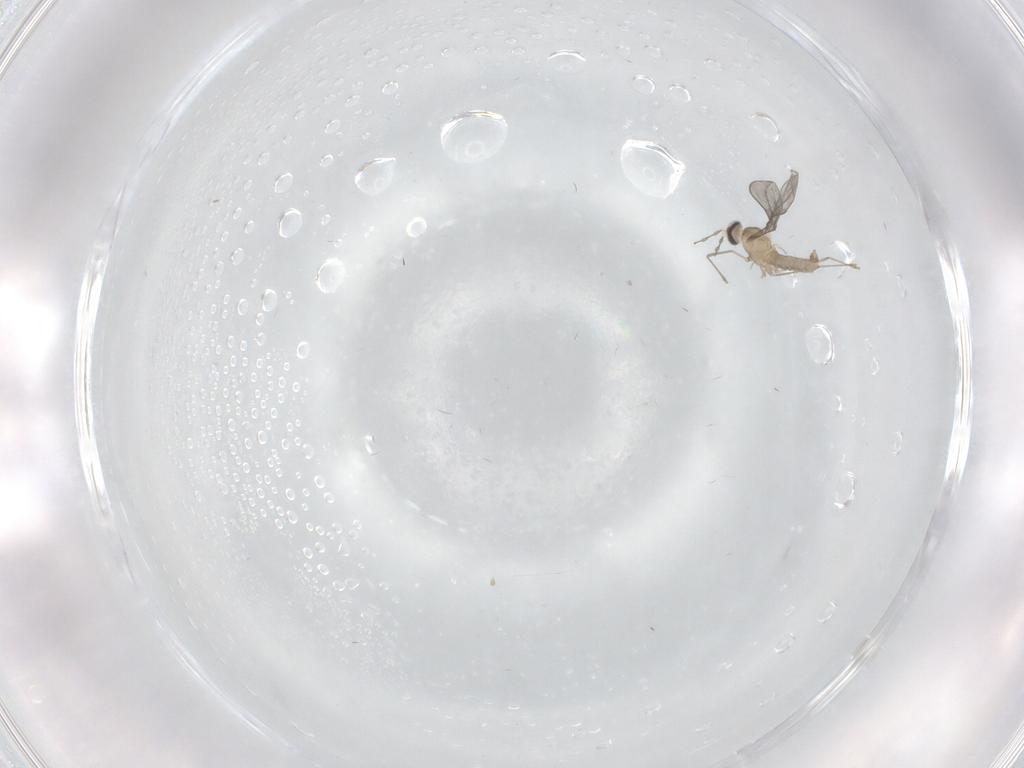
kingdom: Animalia
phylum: Arthropoda
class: Insecta
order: Diptera
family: Cecidomyiidae
